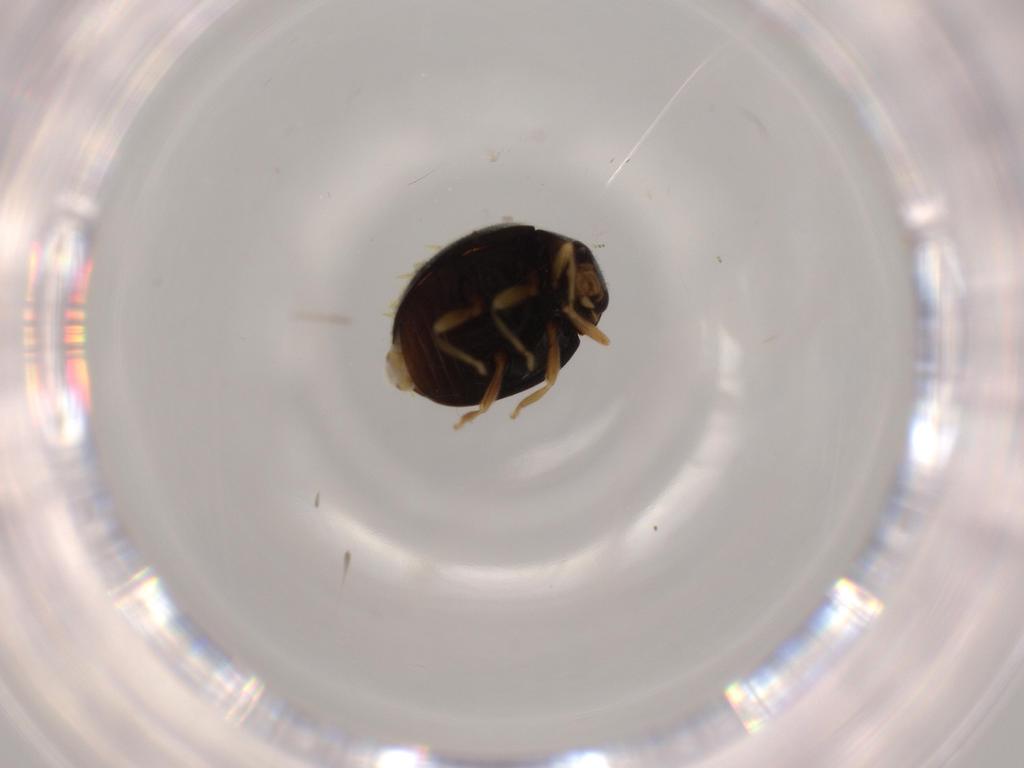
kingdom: Animalia
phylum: Arthropoda
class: Insecta
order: Coleoptera
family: Coccinellidae
